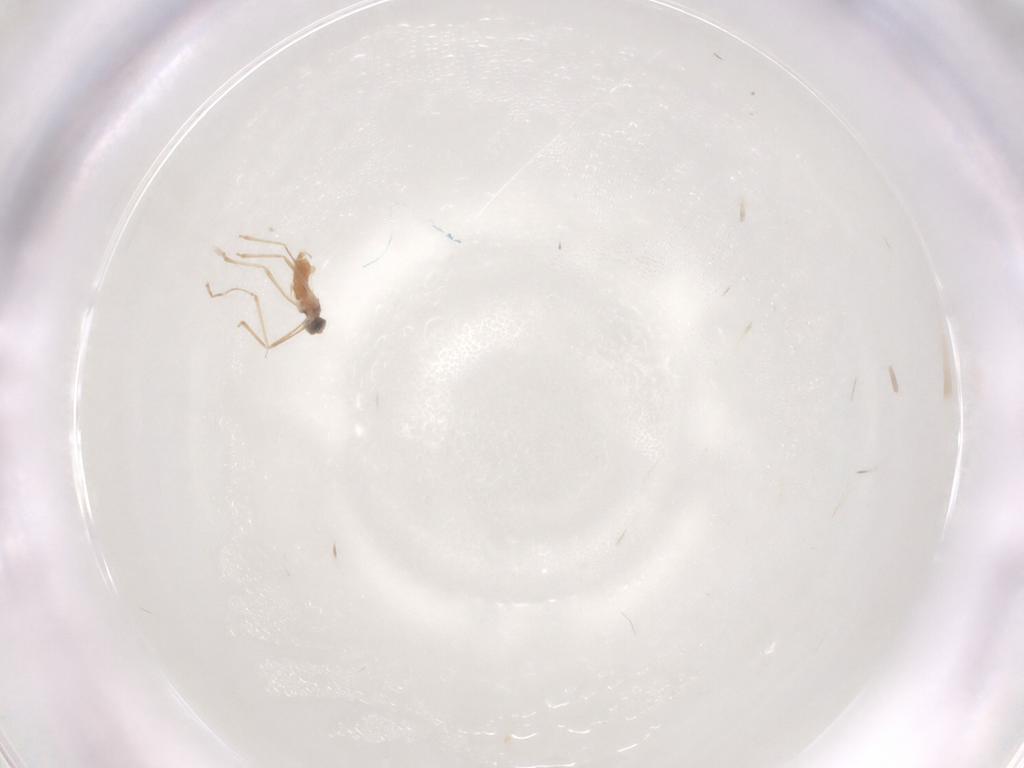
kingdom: Animalia
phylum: Arthropoda
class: Insecta
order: Diptera
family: Cecidomyiidae
